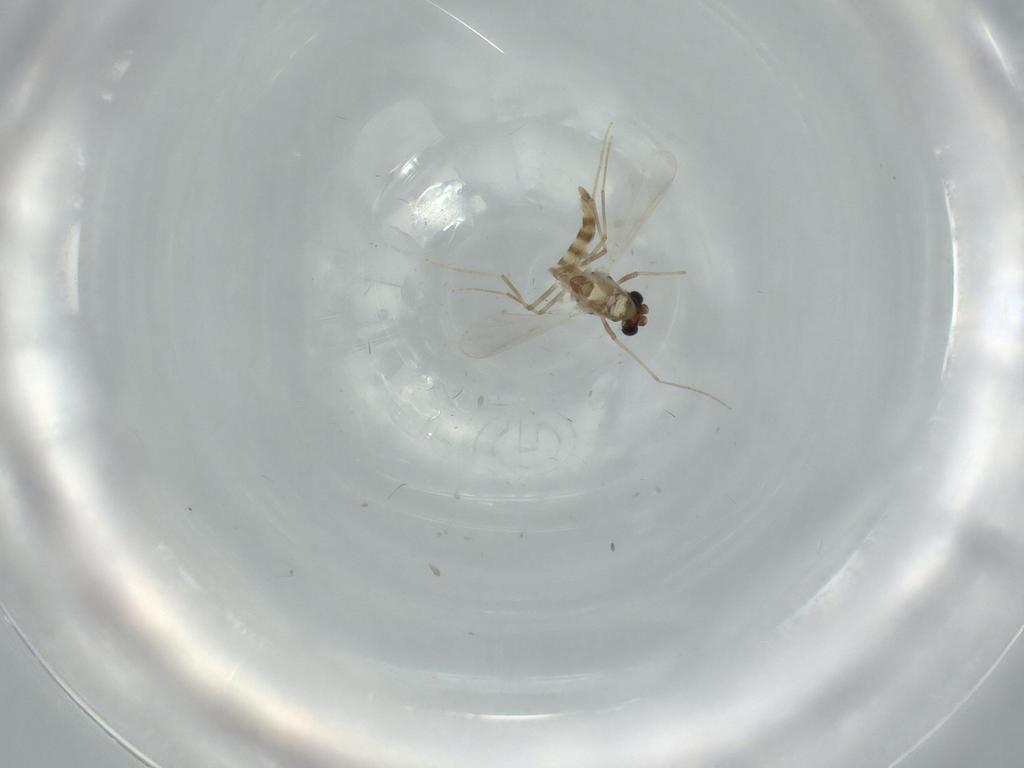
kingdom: Animalia
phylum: Arthropoda
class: Insecta
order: Diptera
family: Chironomidae
